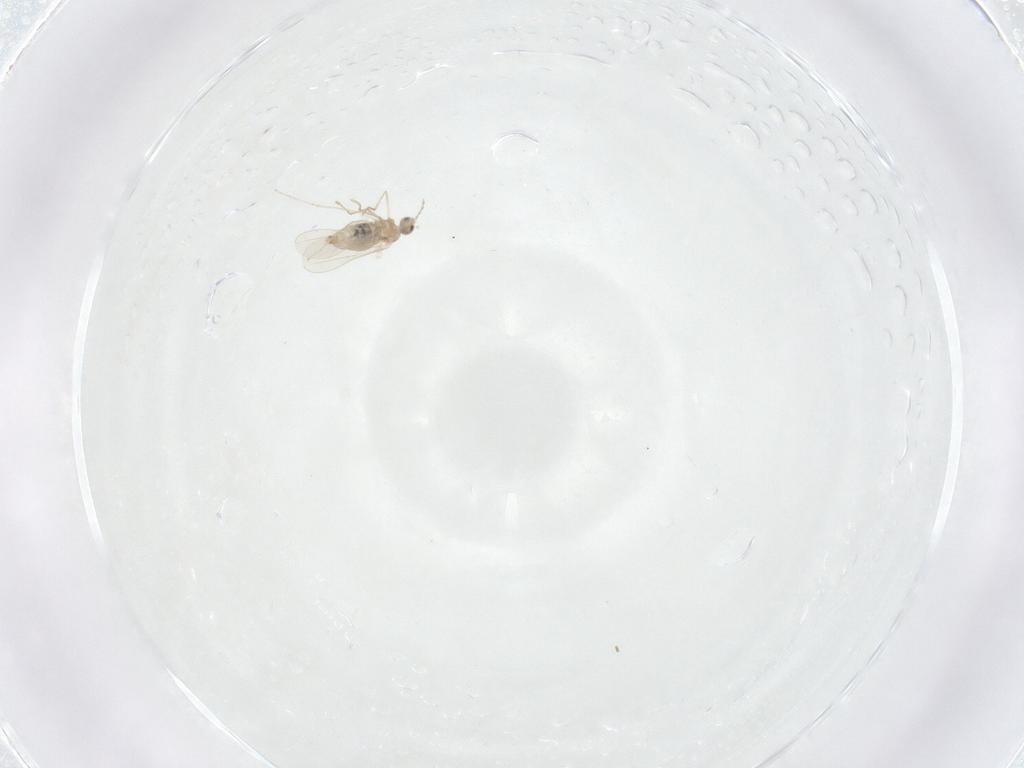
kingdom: Animalia
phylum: Arthropoda
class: Insecta
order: Diptera
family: Cecidomyiidae
